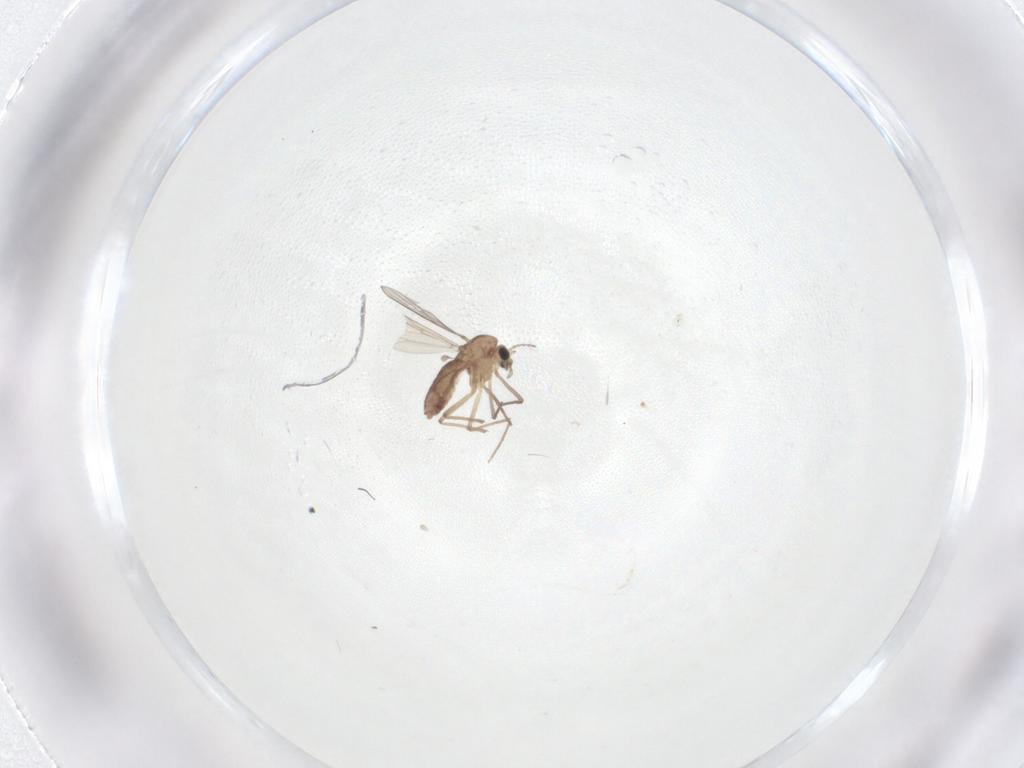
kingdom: Animalia
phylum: Arthropoda
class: Insecta
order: Diptera
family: Chironomidae
